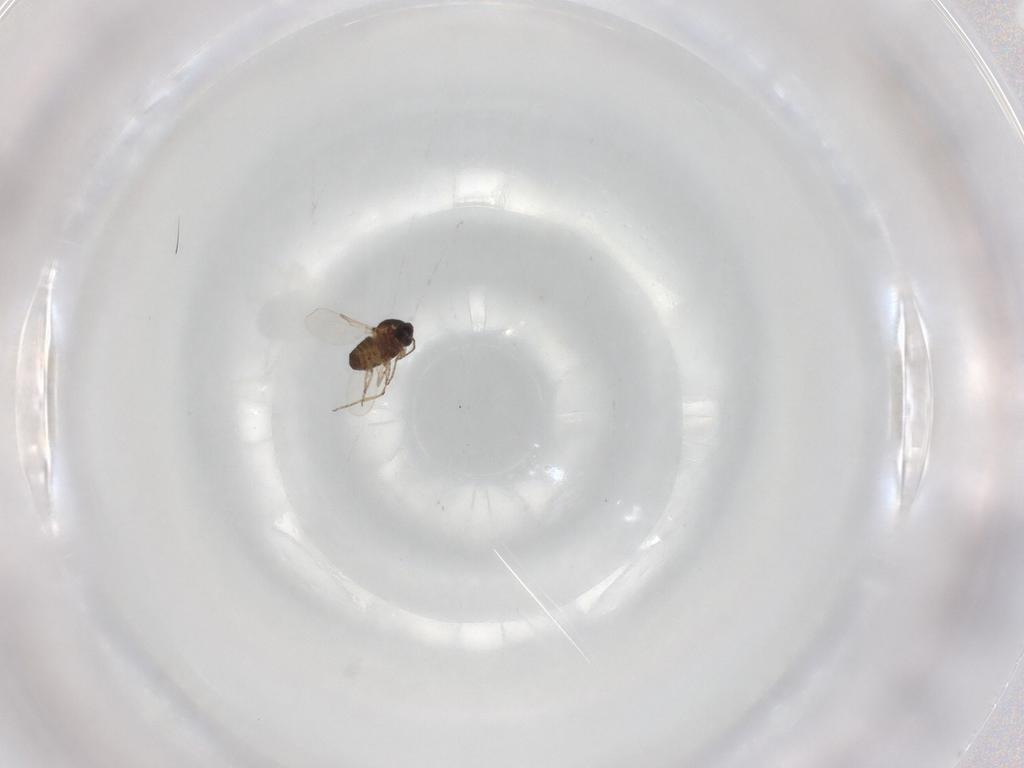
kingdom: Animalia
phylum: Arthropoda
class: Insecta
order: Diptera
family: Ceratopogonidae
